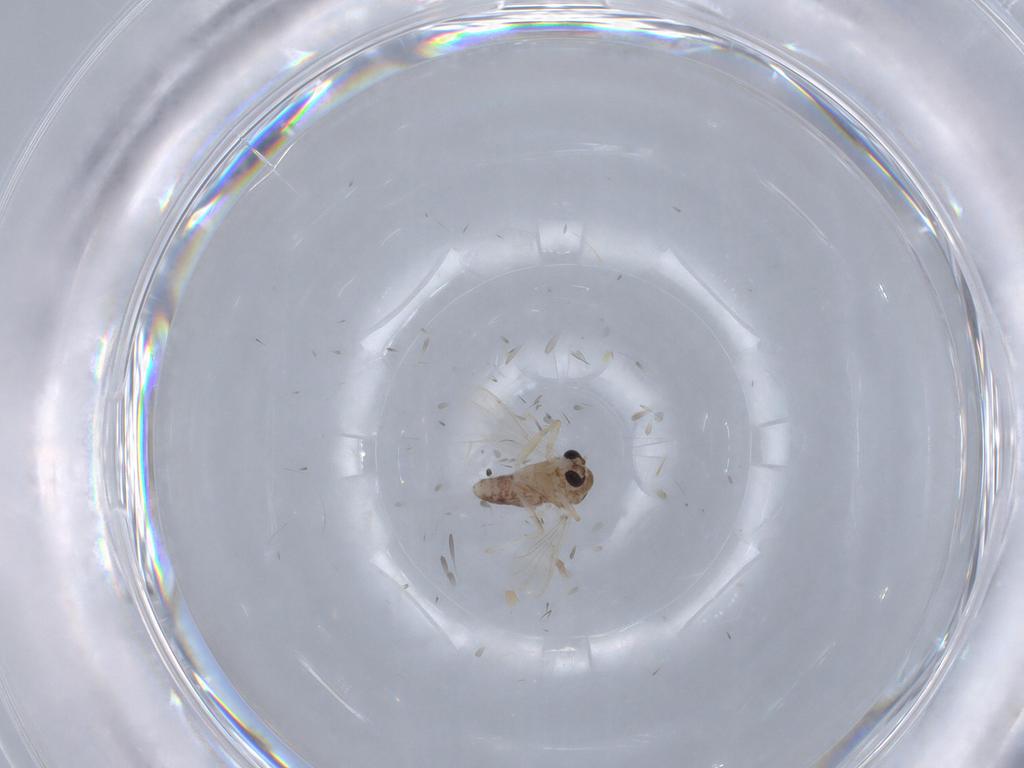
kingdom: Animalia
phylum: Arthropoda
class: Insecta
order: Diptera
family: Chironomidae
